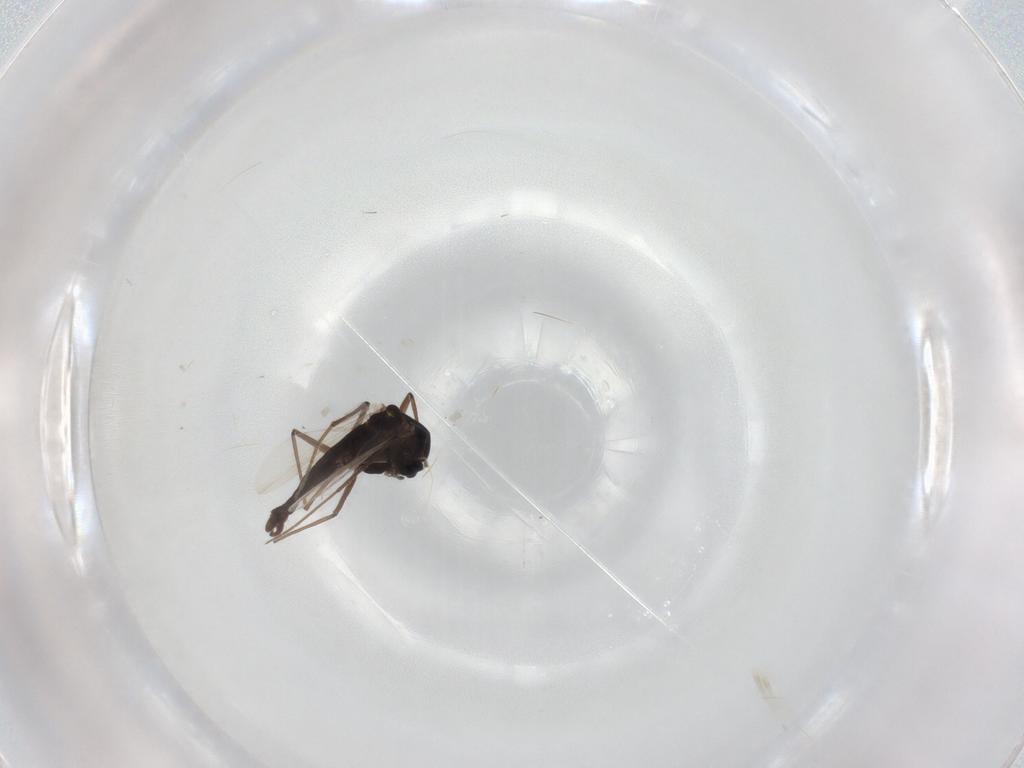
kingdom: Animalia
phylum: Arthropoda
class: Insecta
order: Diptera
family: Chironomidae
